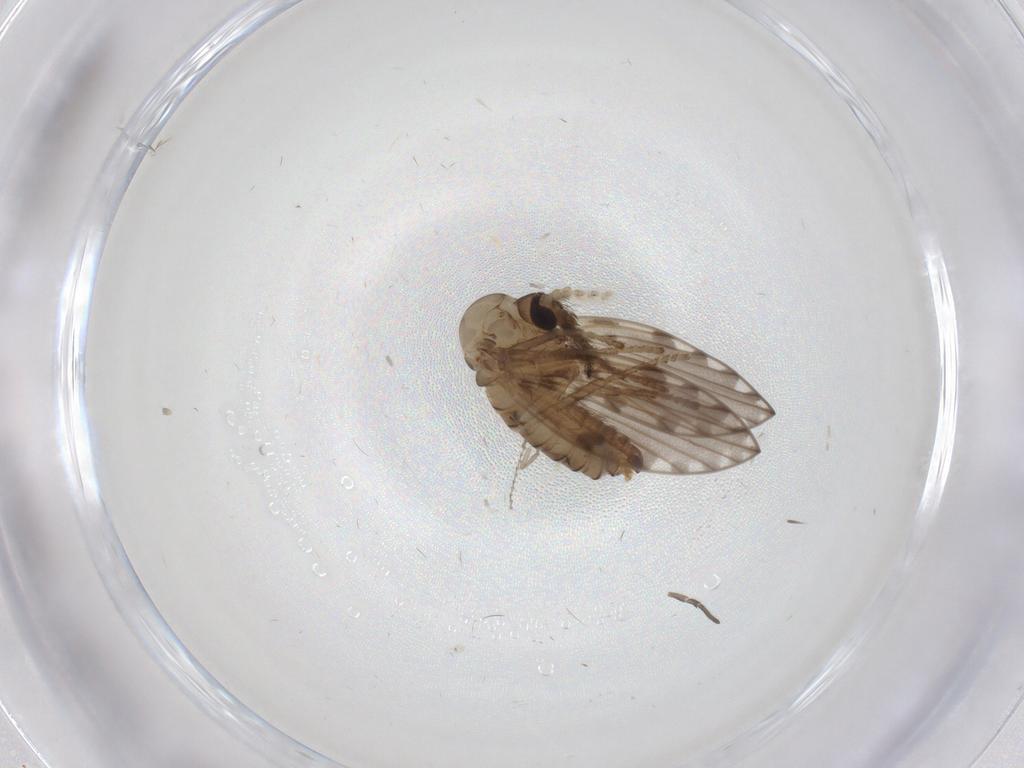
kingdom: Animalia
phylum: Arthropoda
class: Insecta
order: Diptera
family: Psychodidae
